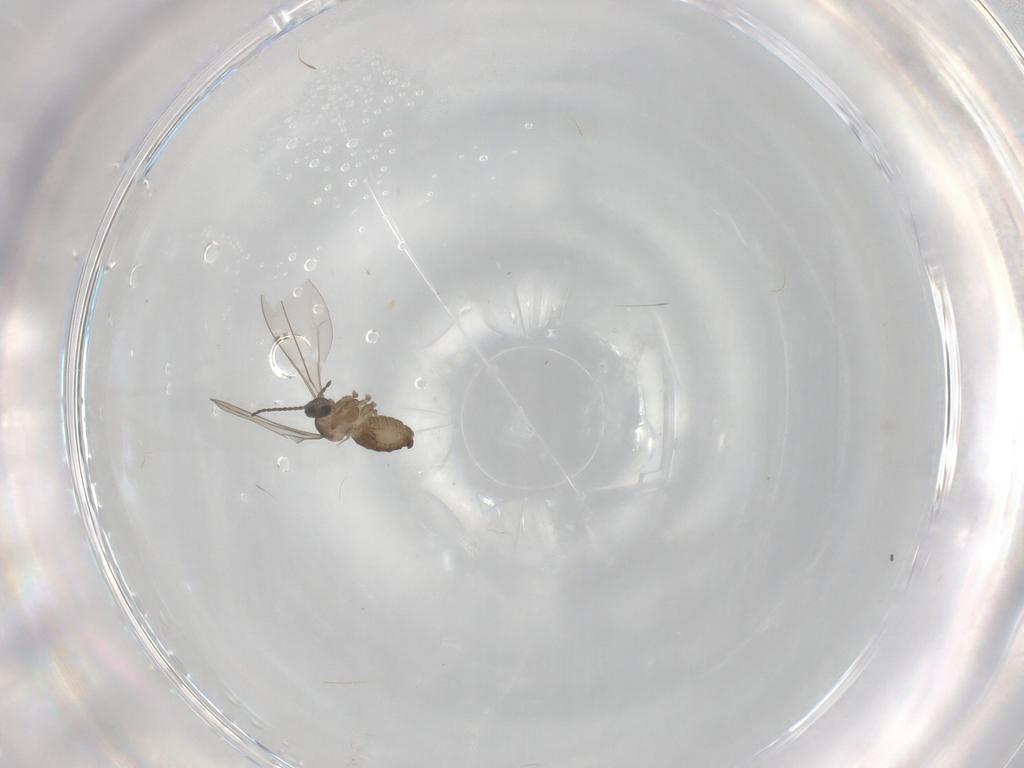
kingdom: Animalia
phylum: Arthropoda
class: Insecta
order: Diptera
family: Cecidomyiidae
